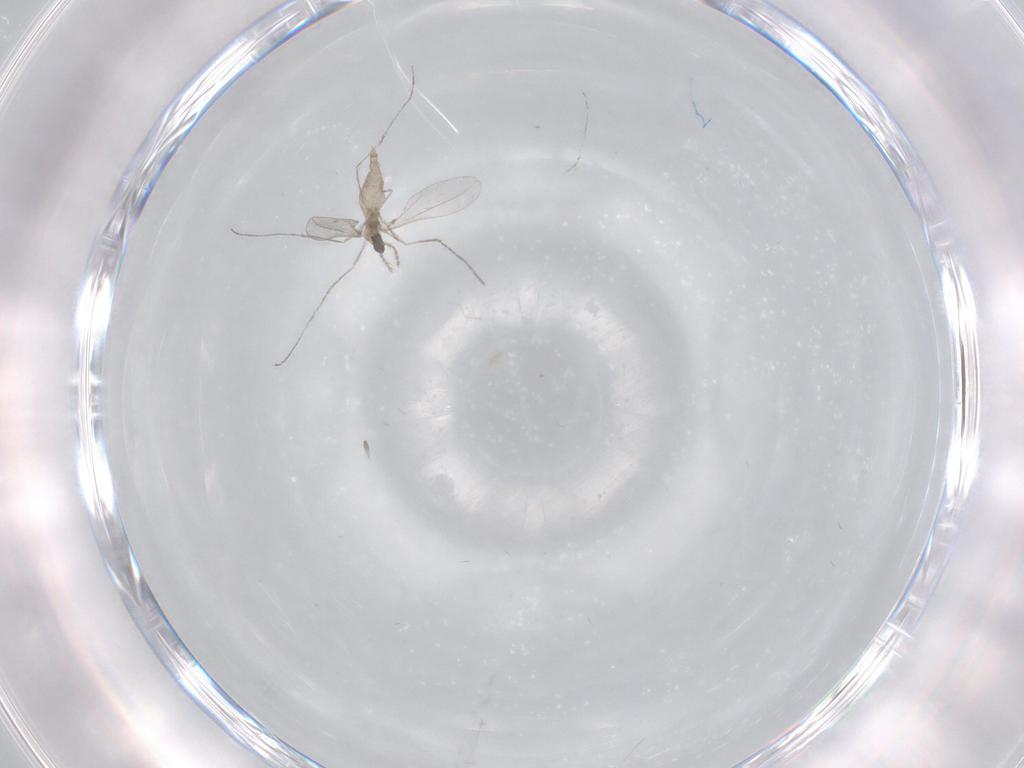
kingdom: Animalia
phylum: Arthropoda
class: Insecta
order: Diptera
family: Cecidomyiidae
